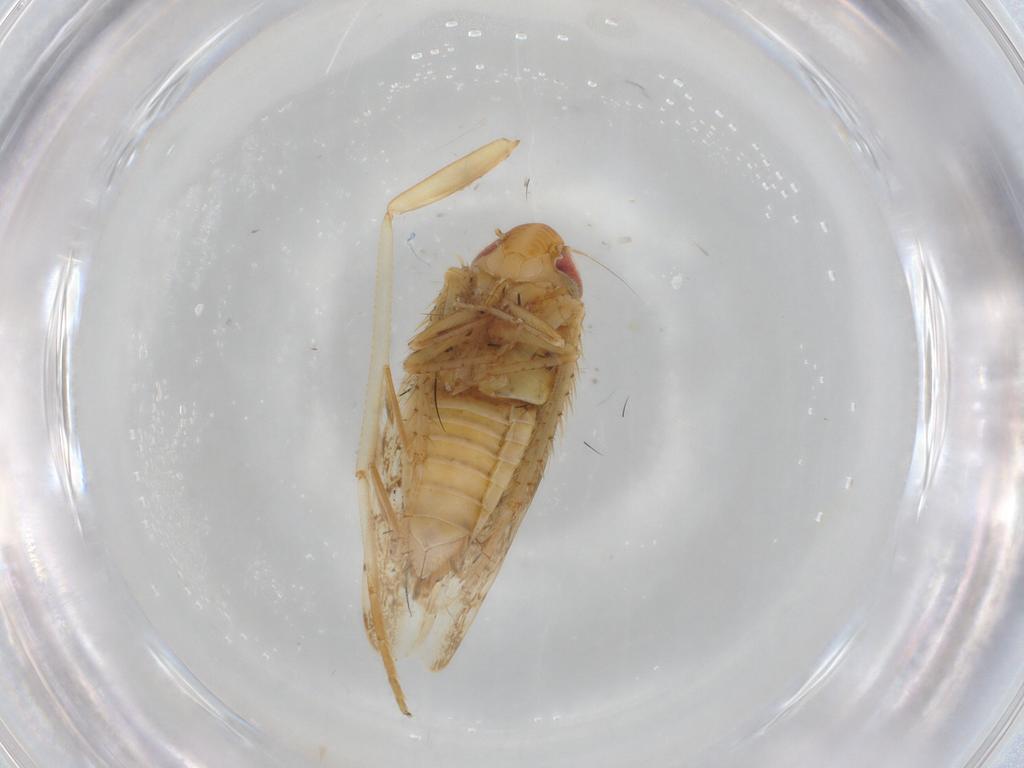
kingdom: Animalia
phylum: Arthropoda
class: Insecta
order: Hemiptera
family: Cicadellidae
